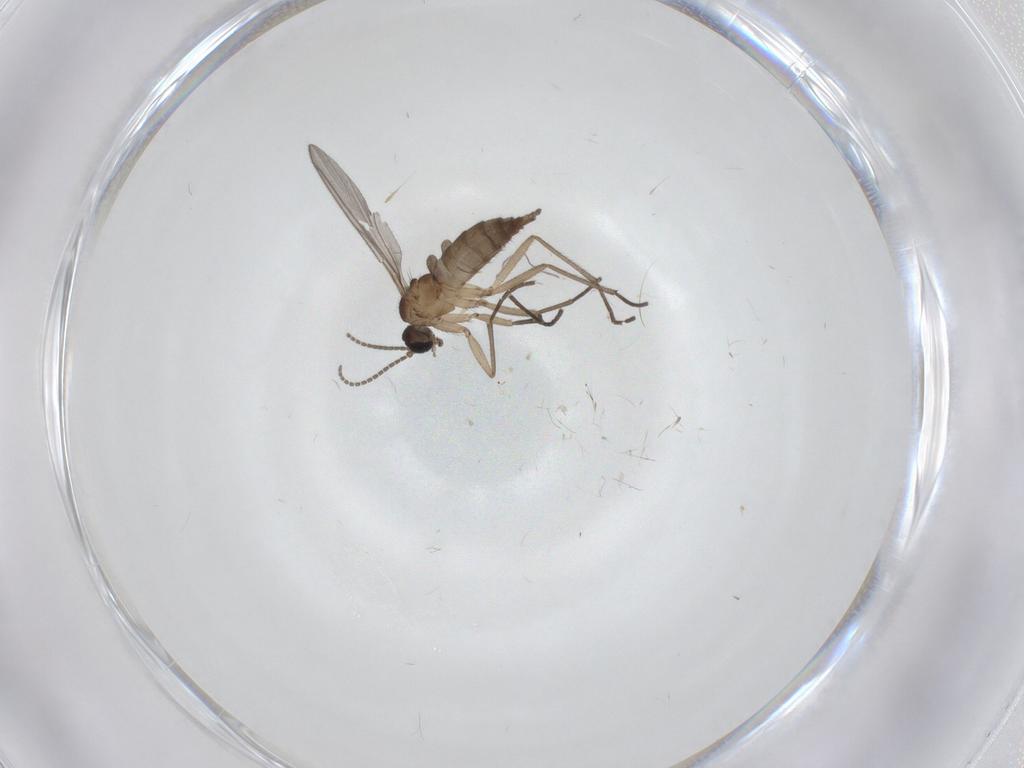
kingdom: Animalia
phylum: Arthropoda
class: Insecta
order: Diptera
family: Sciaridae
